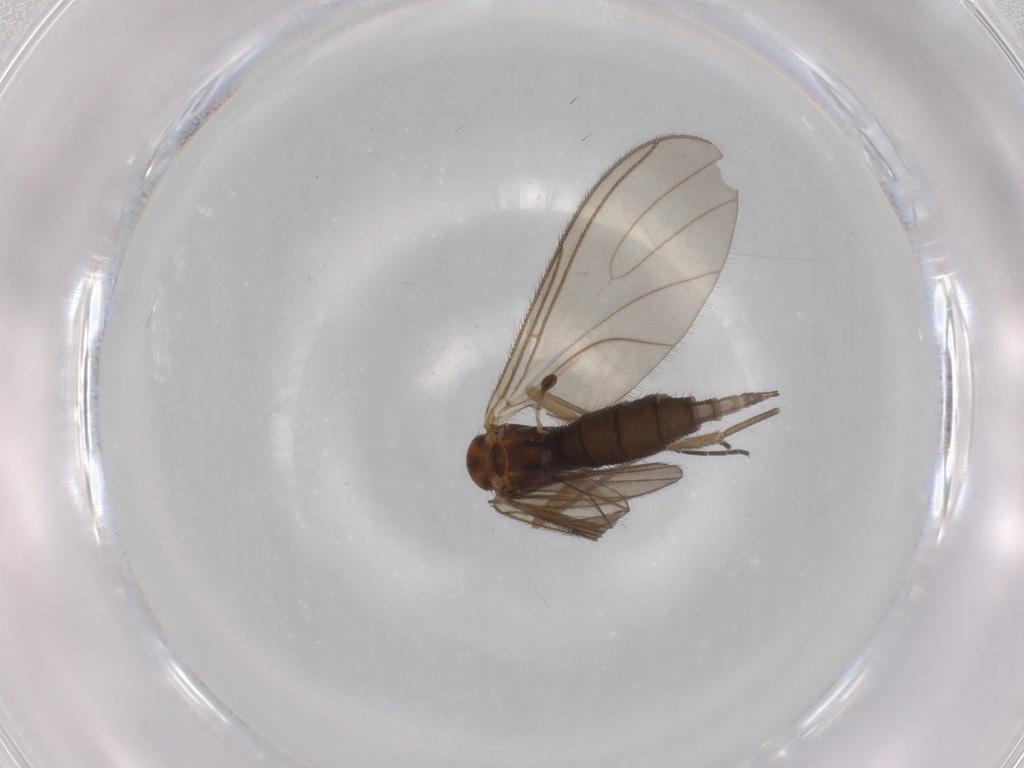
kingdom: Animalia
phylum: Arthropoda
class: Insecta
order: Diptera
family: Sciaridae
